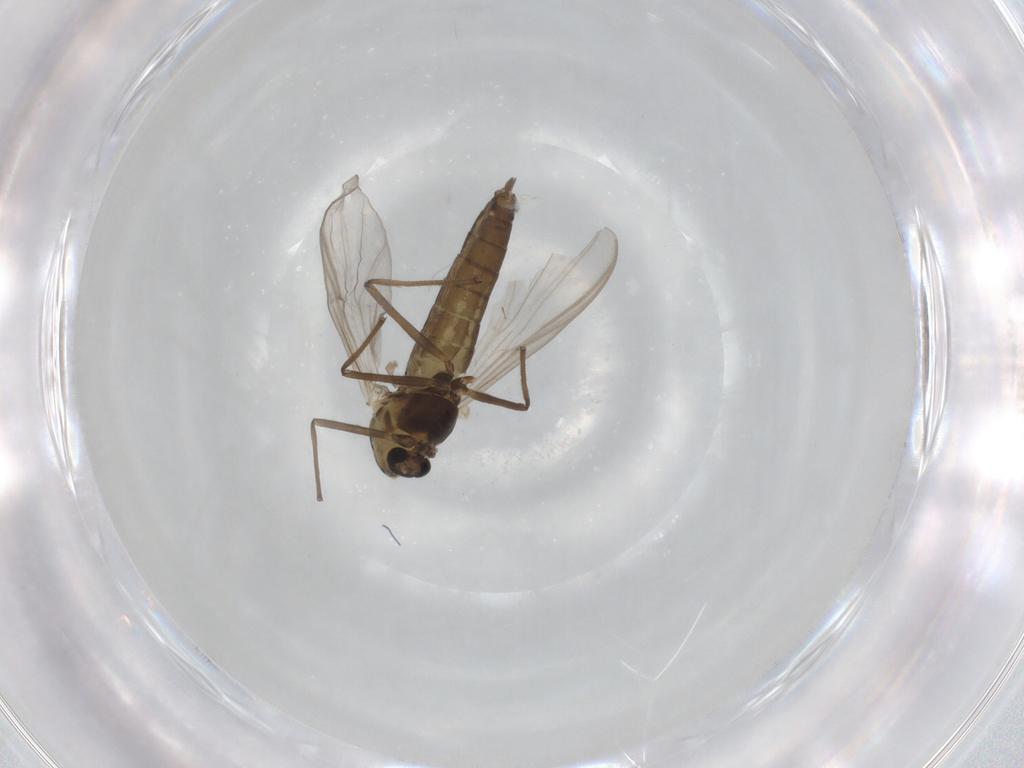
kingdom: Animalia
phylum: Arthropoda
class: Insecta
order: Diptera
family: Chironomidae
